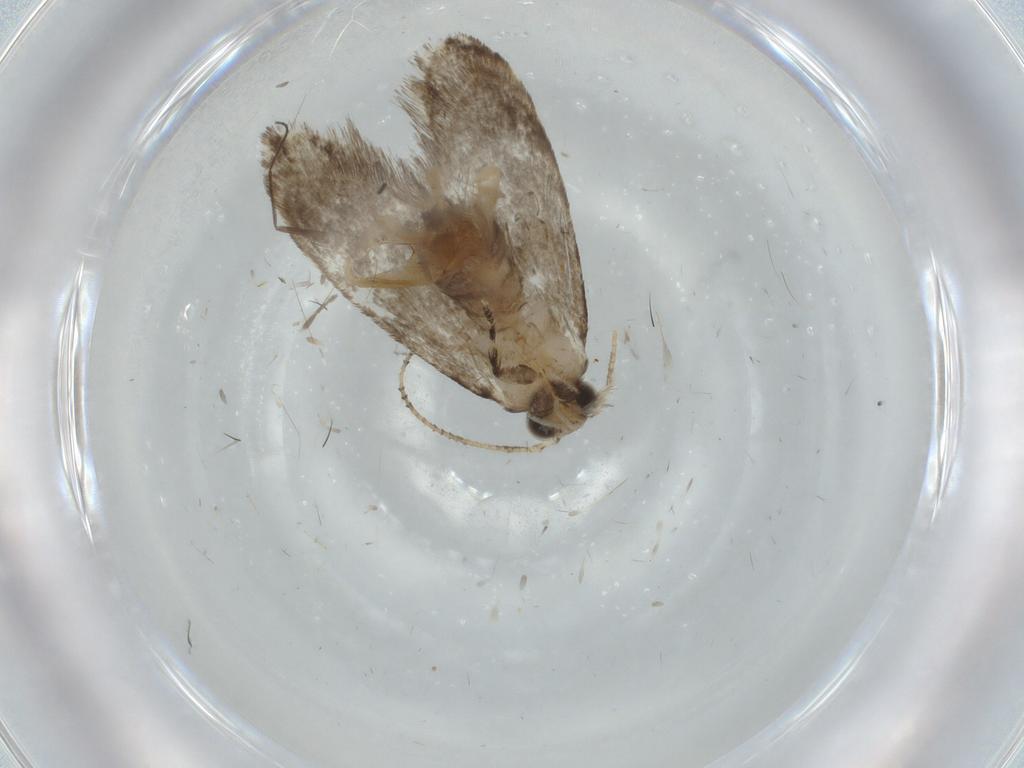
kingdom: Animalia
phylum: Arthropoda
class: Insecta
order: Lepidoptera
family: Tineidae
